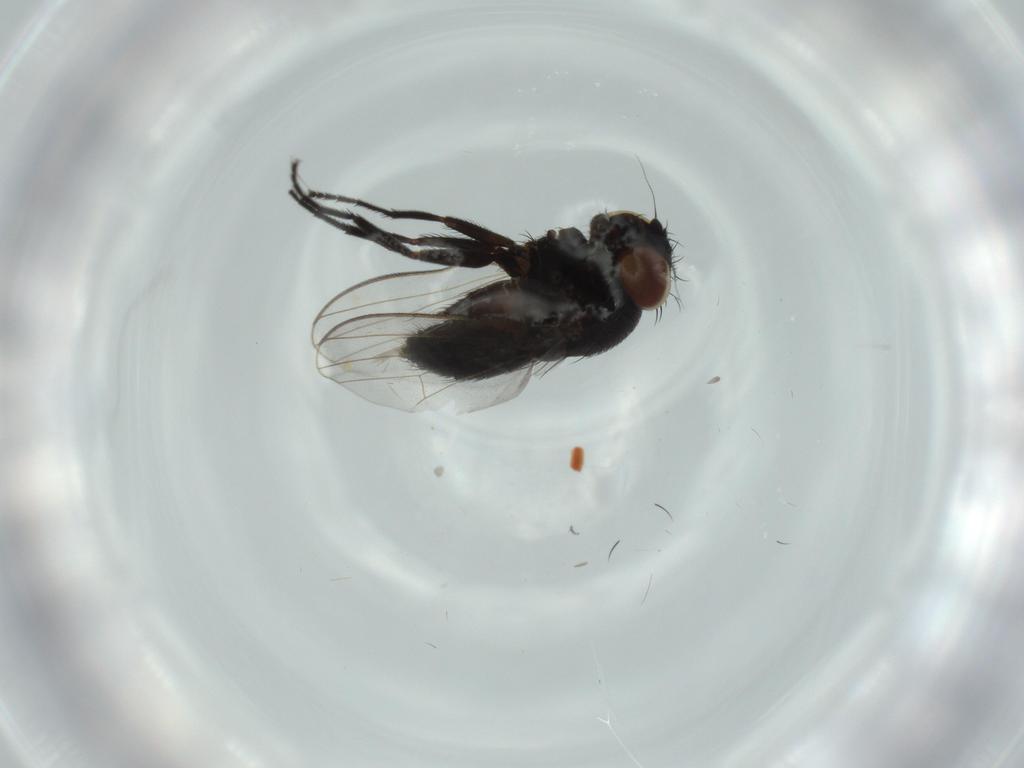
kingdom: Animalia
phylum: Arthropoda
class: Insecta
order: Diptera
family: Milichiidae
